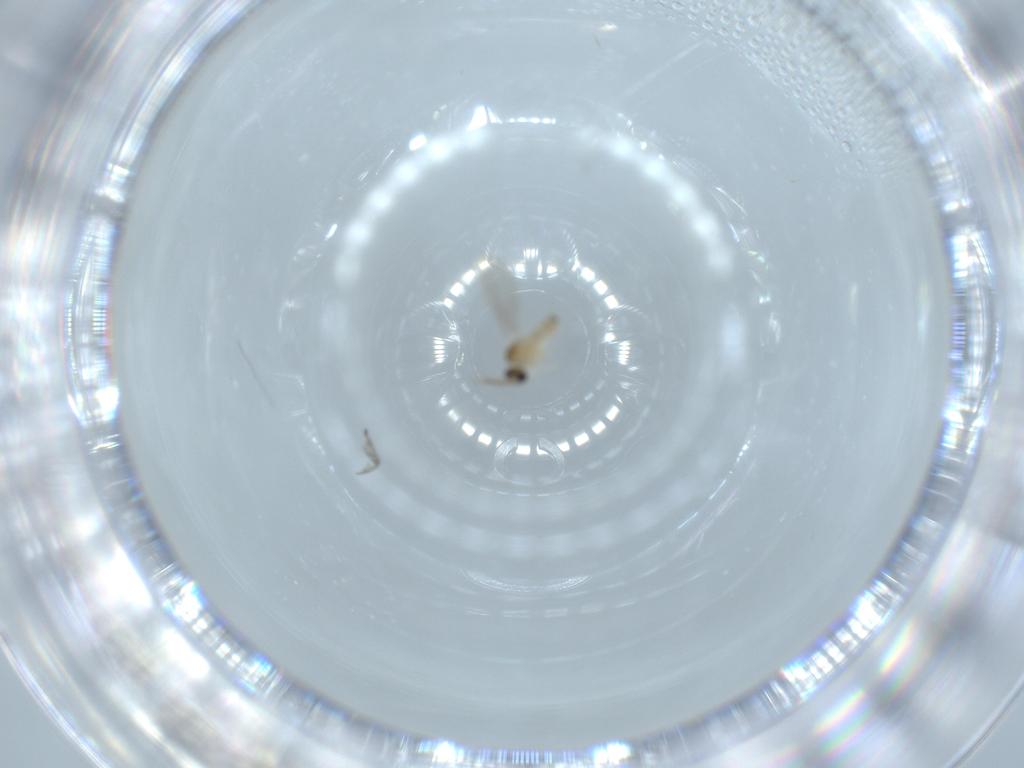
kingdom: Animalia
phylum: Arthropoda
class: Insecta
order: Diptera
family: Cecidomyiidae
